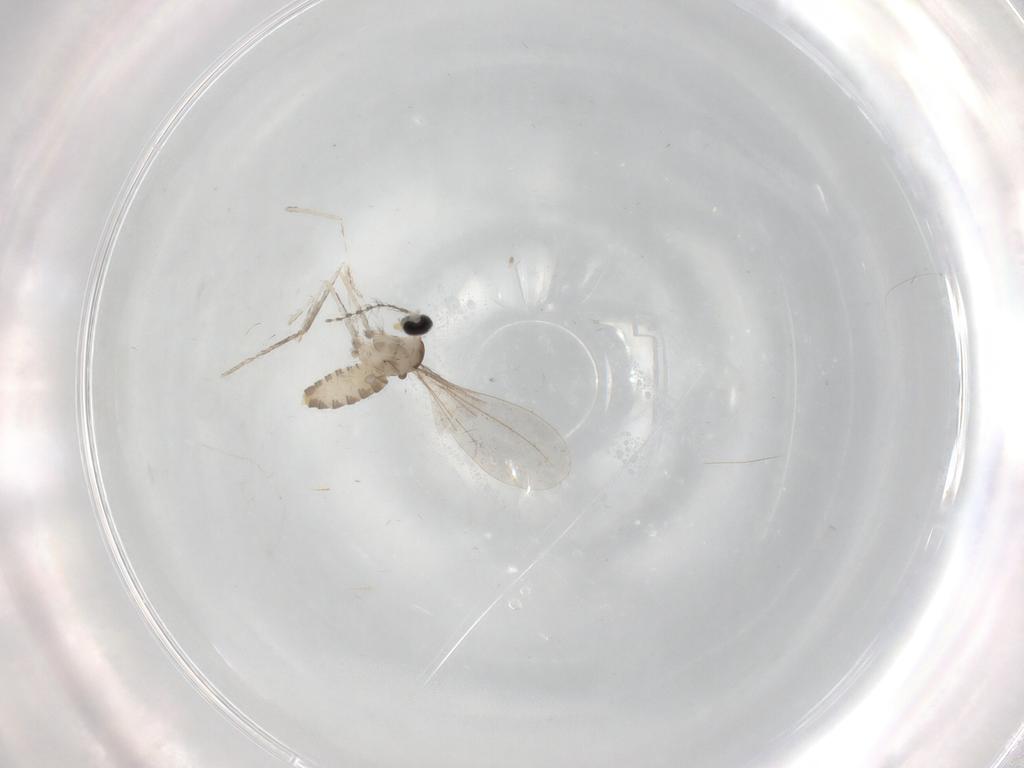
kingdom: Animalia
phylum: Arthropoda
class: Insecta
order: Diptera
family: Cecidomyiidae
